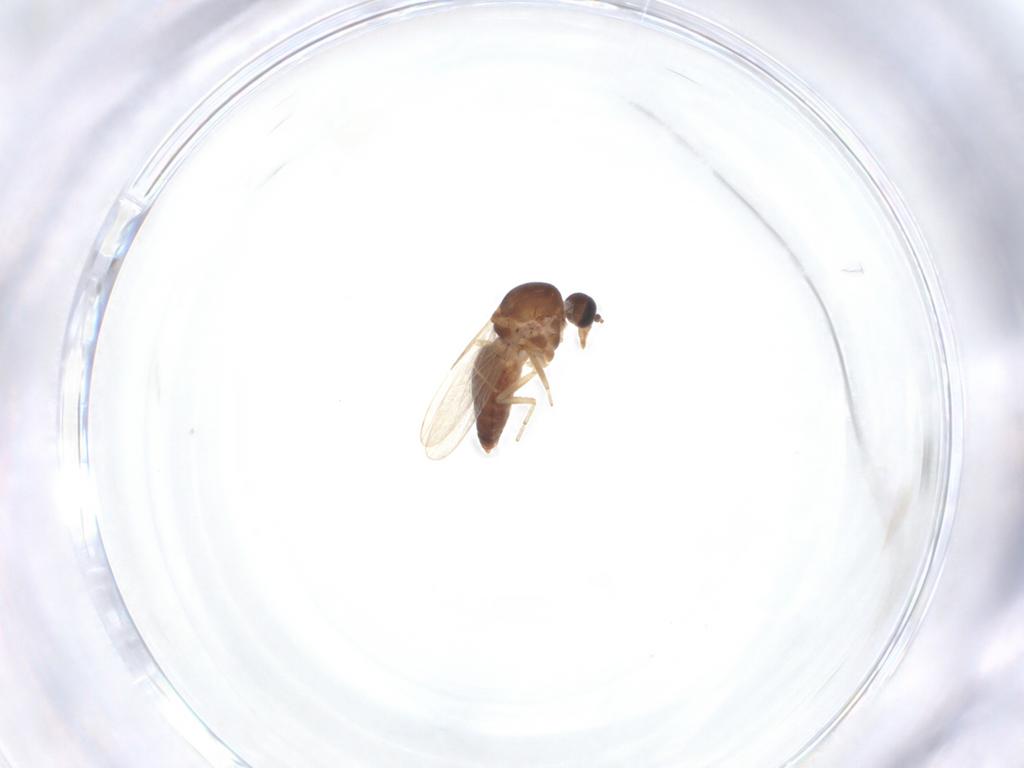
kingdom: Animalia
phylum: Arthropoda
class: Insecta
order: Diptera
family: Ceratopogonidae
